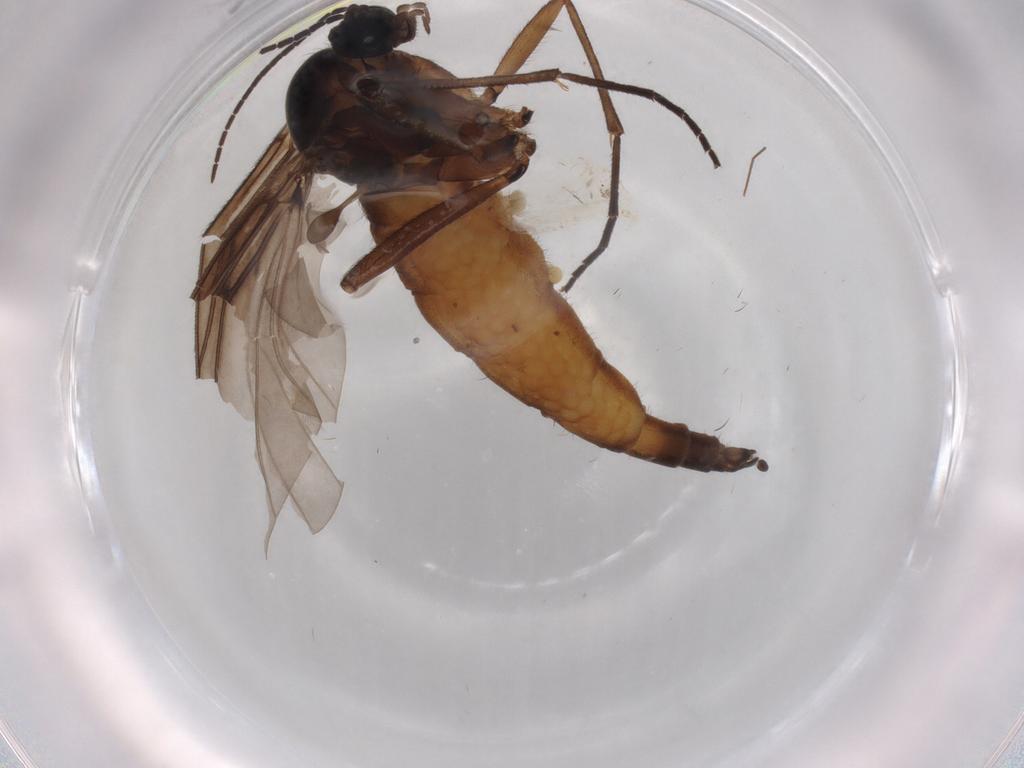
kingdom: Animalia
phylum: Arthropoda
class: Insecta
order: Diptera
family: Sciaridae
